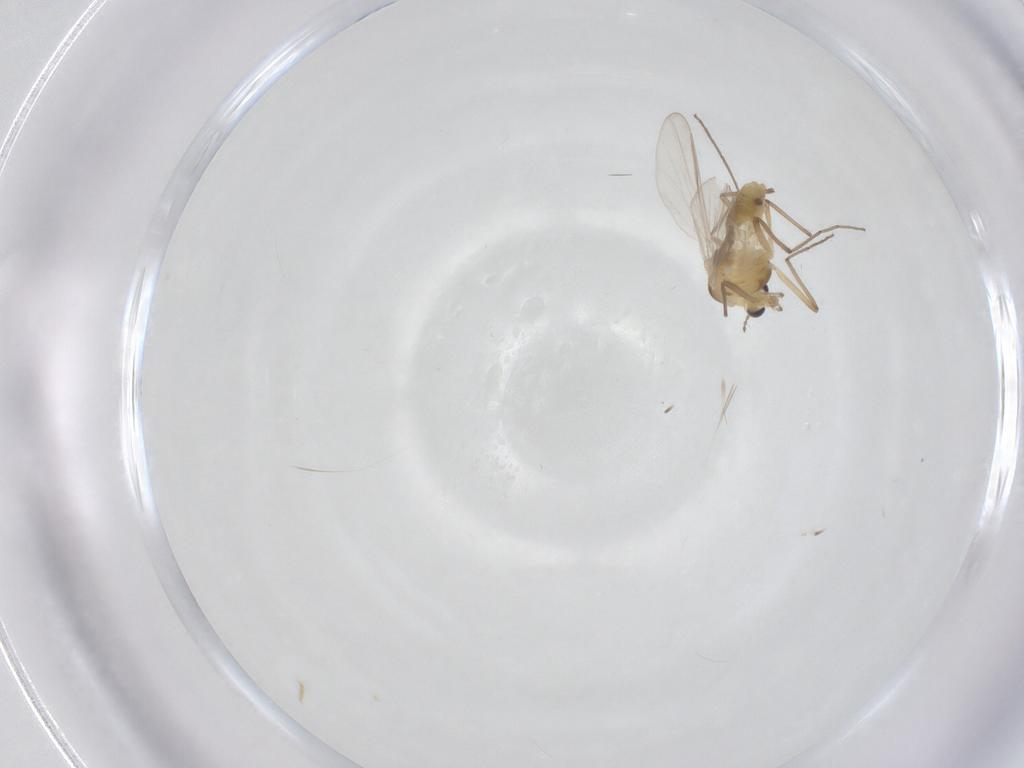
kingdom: Animalia
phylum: Arthropoda
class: Insecta
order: Diptera
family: Chironomidae
